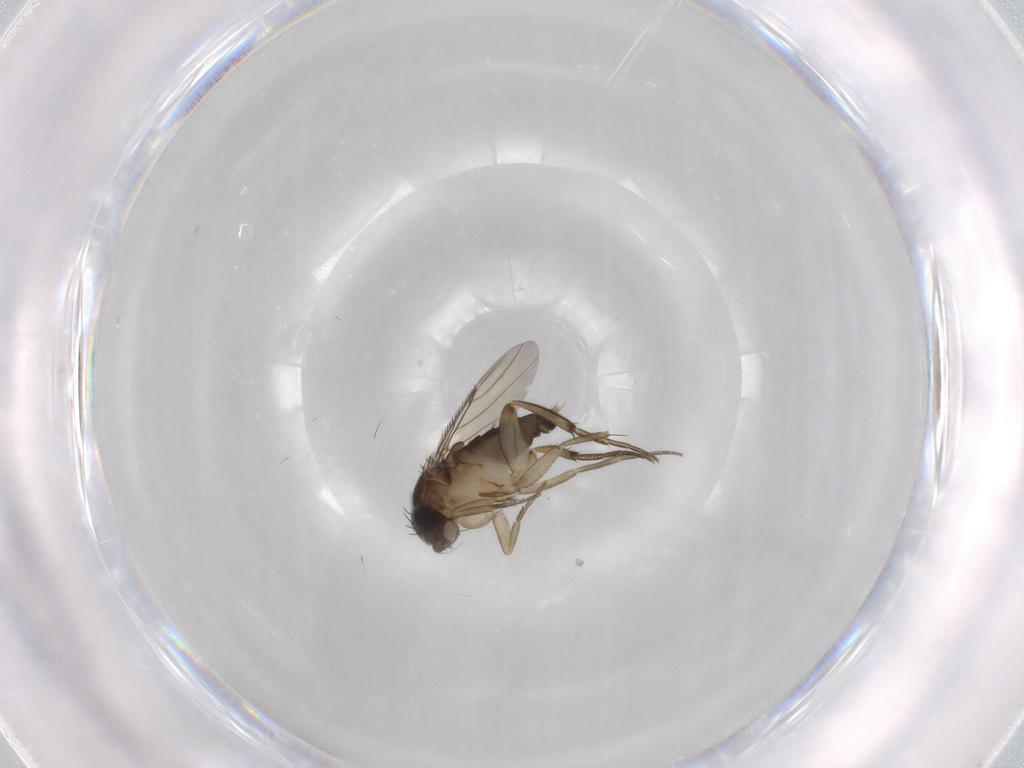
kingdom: Animalia
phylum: Arthropoda
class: Insecta
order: Diptera
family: Phoridae
